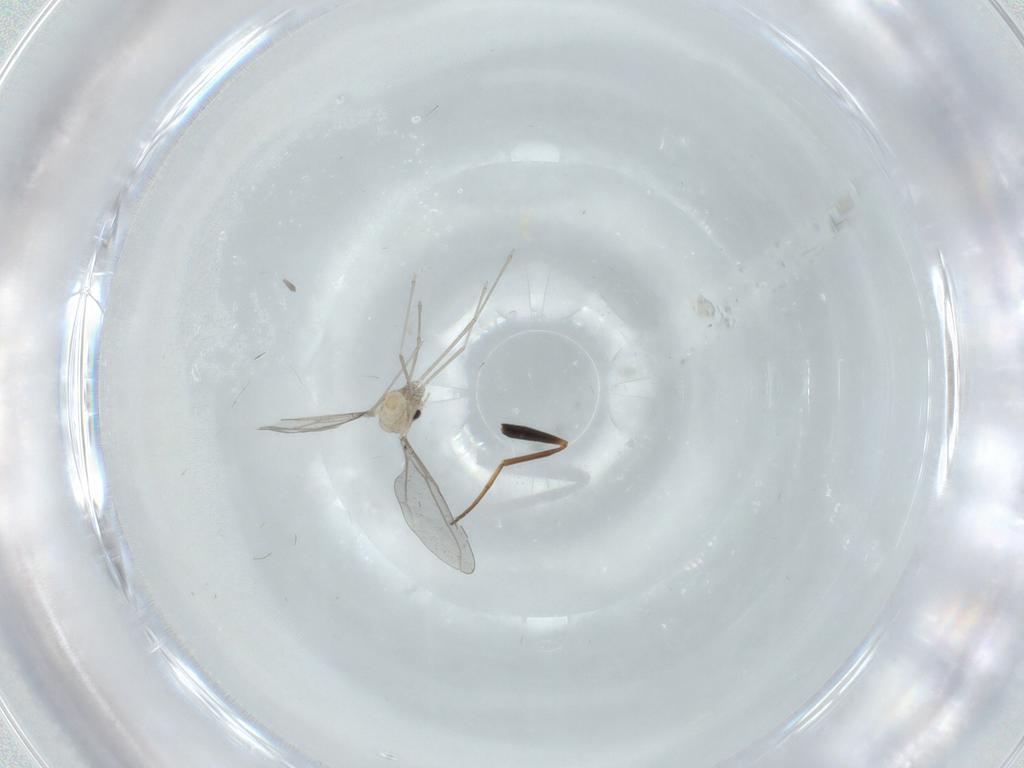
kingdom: Animalia
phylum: Arthropoda
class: Insecta
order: Diptera
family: Cecidomyiidae
